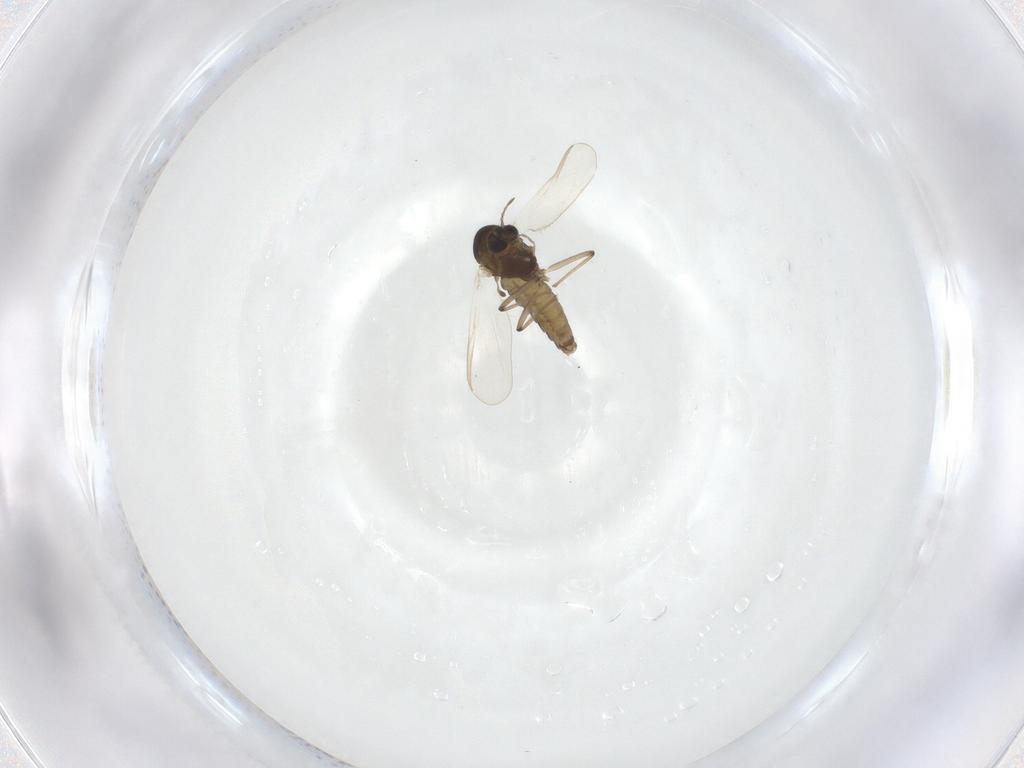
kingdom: Animalia
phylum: Arthropoda
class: Insecta
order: Diptera
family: Chironomidae
